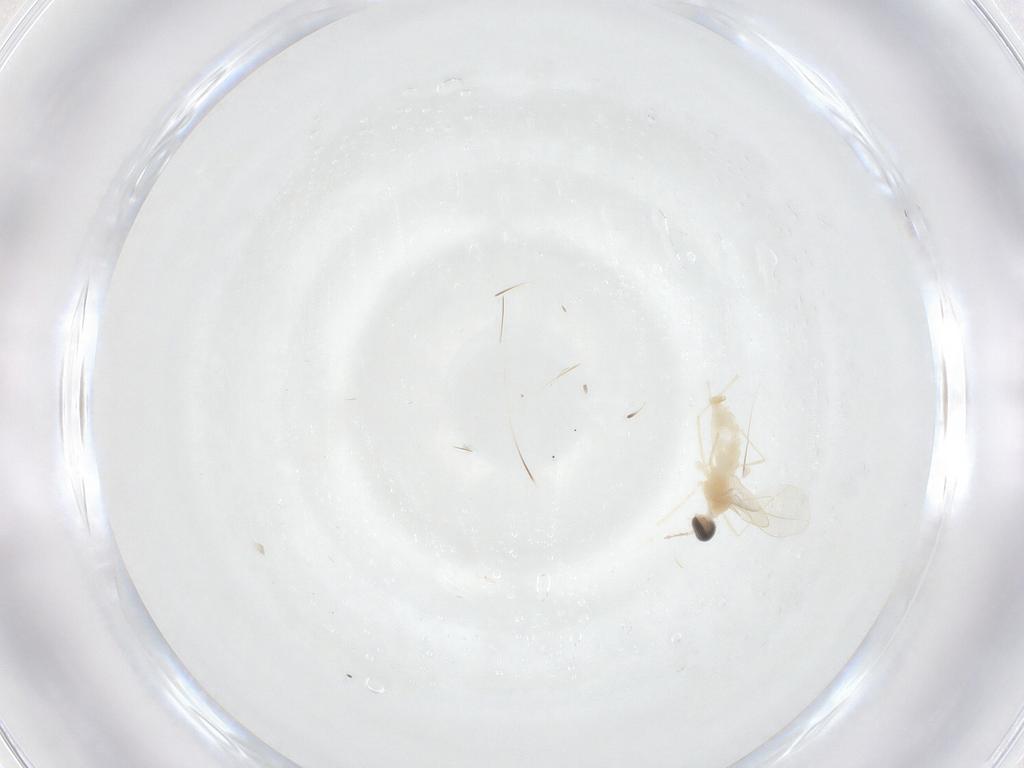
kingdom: Animalia
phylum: Arthropoda
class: Insecta
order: Diptera
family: Cecidomyiidae
